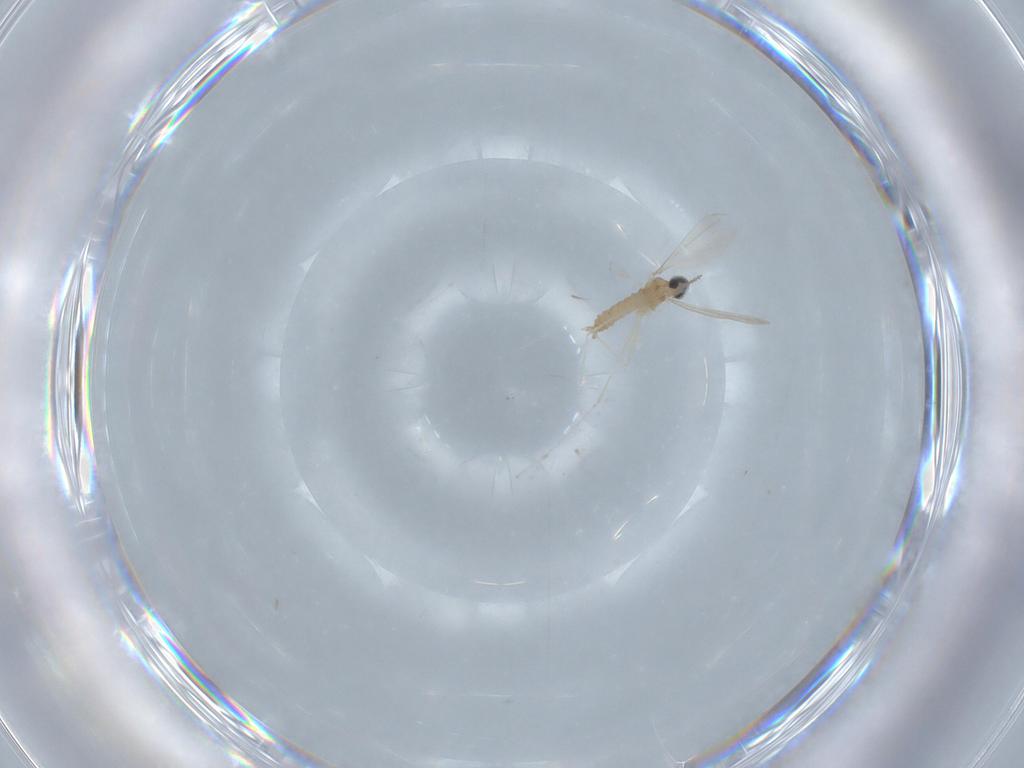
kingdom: Animalia
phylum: Arthropoda
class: Insecta
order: Diptera
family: Cecidomyiidae
